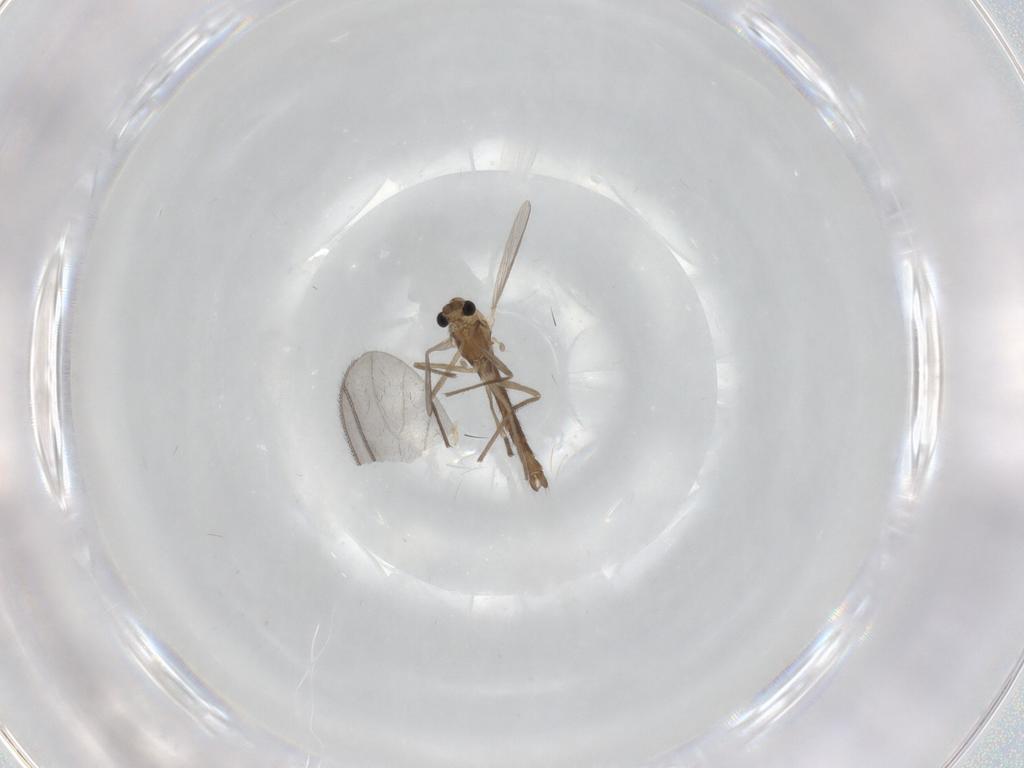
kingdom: Animalia
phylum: Arthropoda
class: Insecta
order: Diptera
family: Chironomidae
